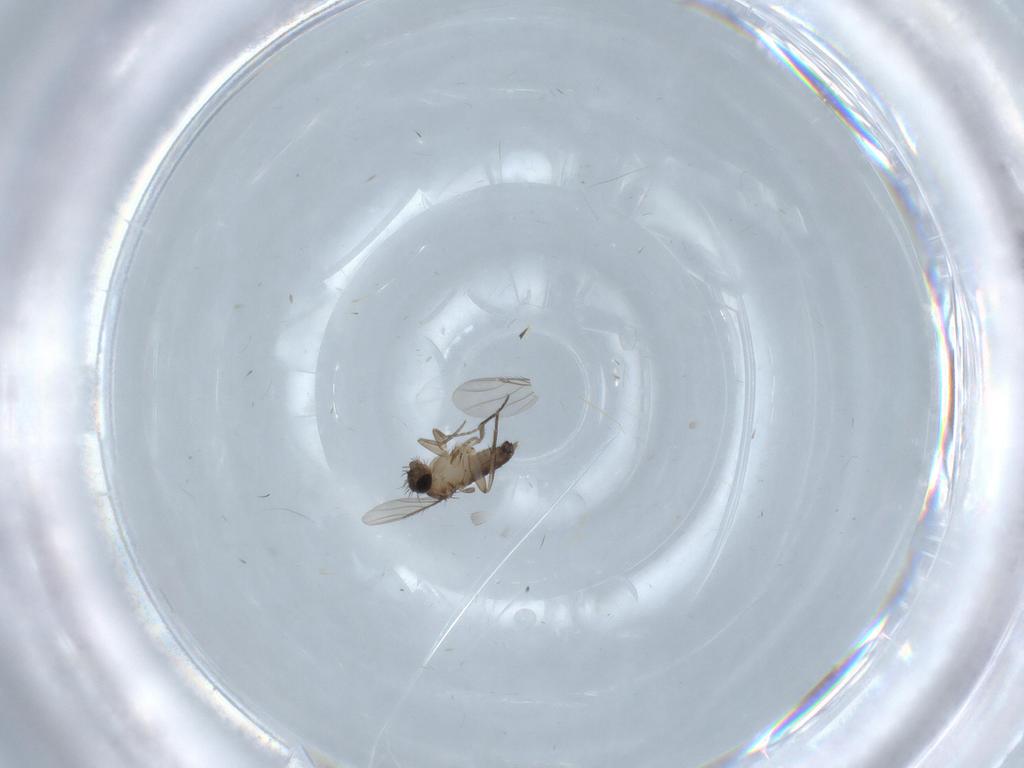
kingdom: Animalia
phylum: Arthropoda
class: Insecta
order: Diptera
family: Phoridae
